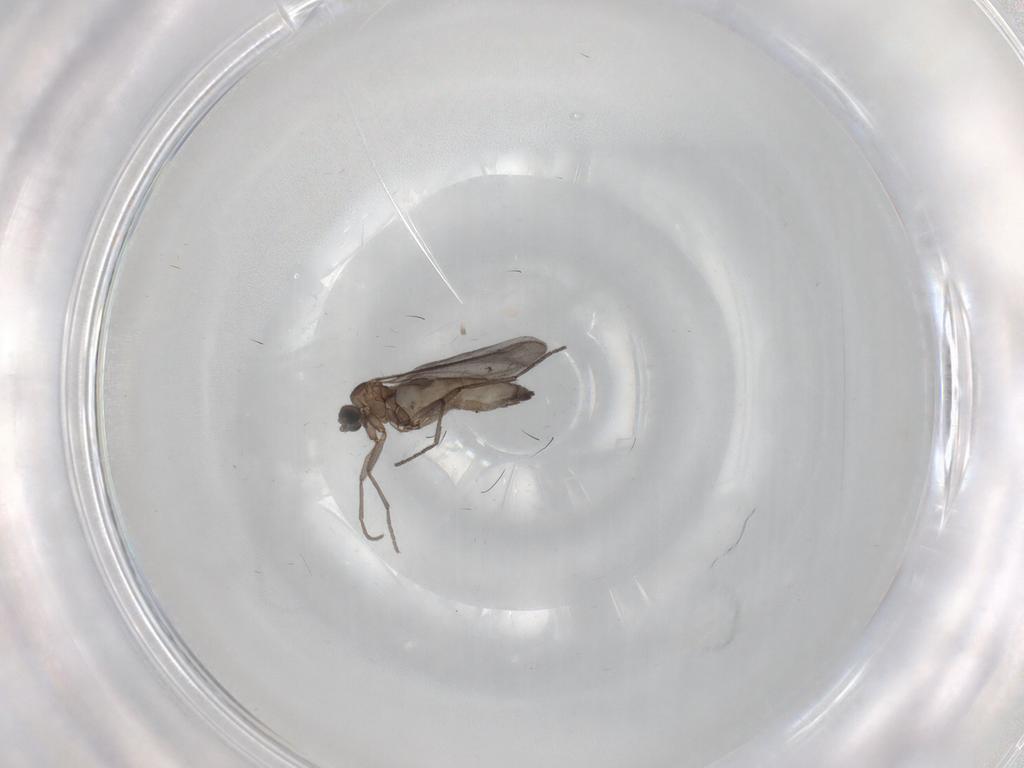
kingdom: Animalia
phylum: Arthropoda
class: Insecta
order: Diptera
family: Sciaridae
